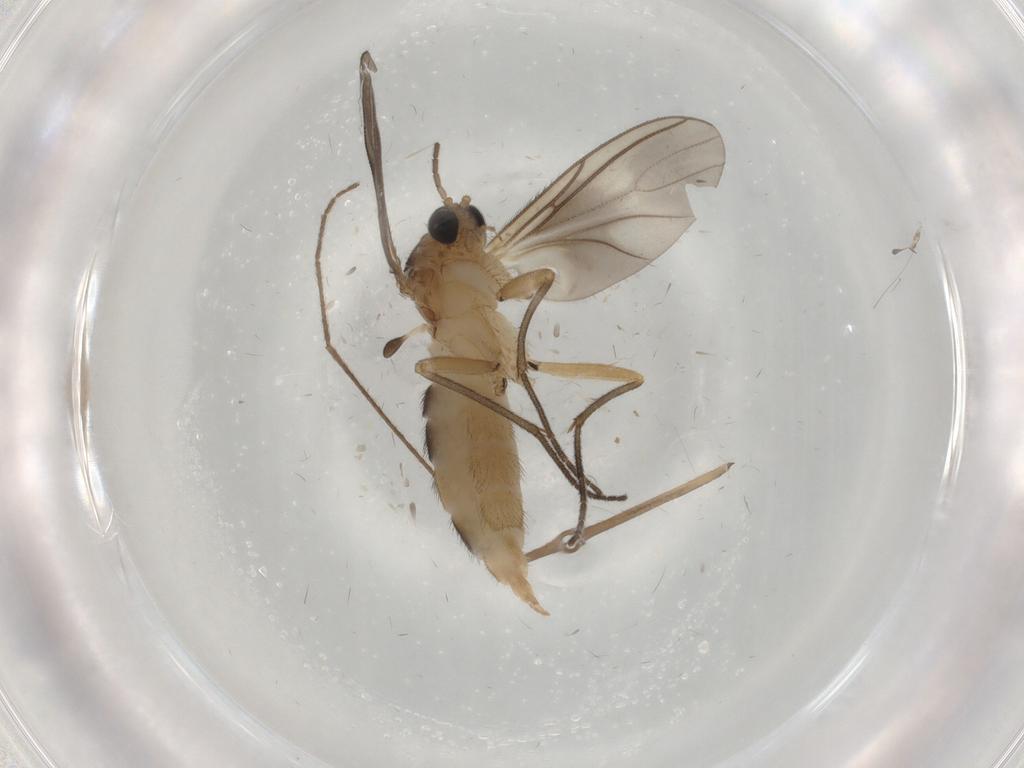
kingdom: Animalia
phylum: Arthropoda
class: Insecta
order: Diptera
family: Sciaridae
